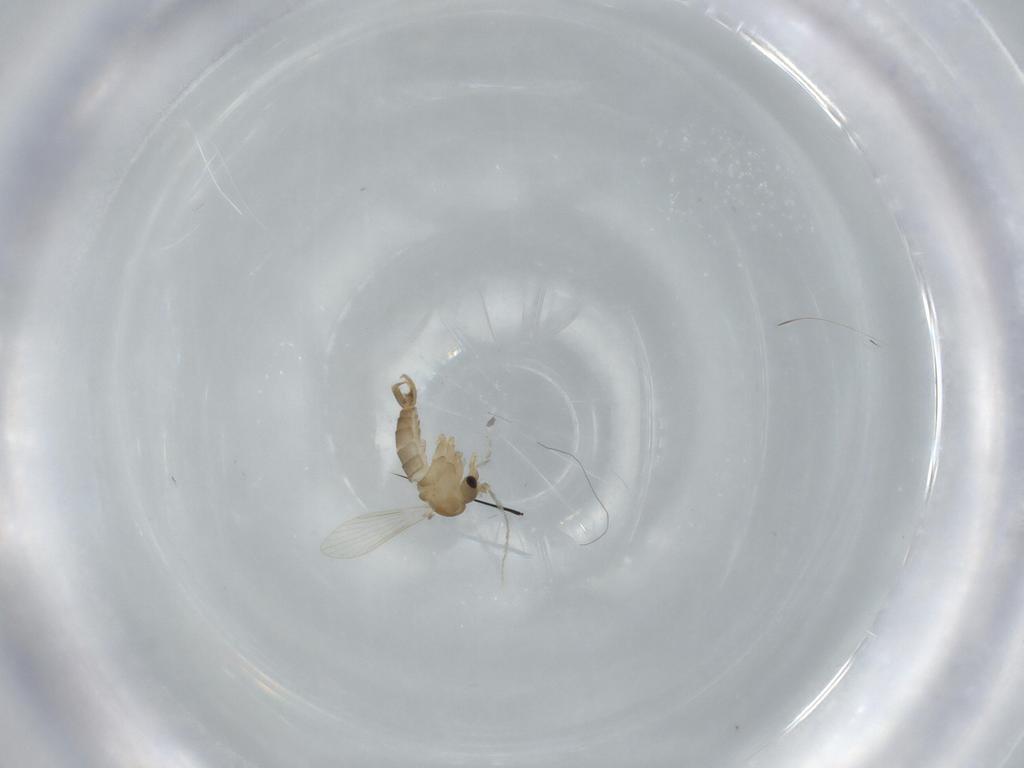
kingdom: Animalia
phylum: Arthropoda
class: Insecta
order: Diptera
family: Psychodidae
